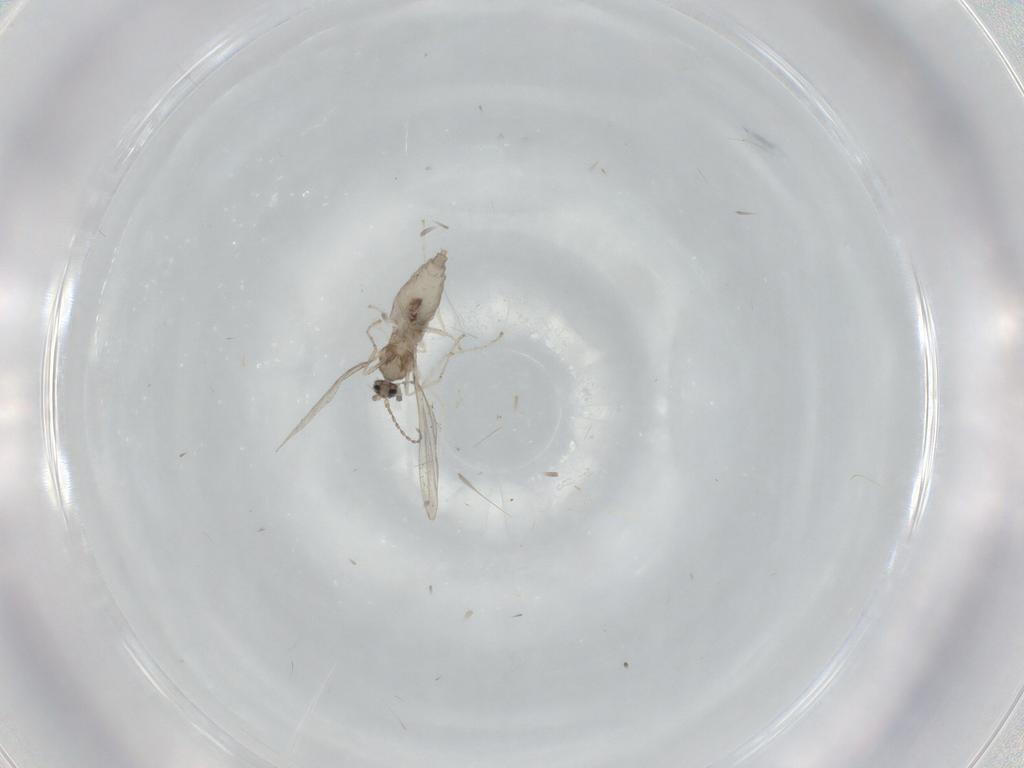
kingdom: Animalia
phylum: Arthropoda
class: Insecta
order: Diptera
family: Cecidomyiidae
